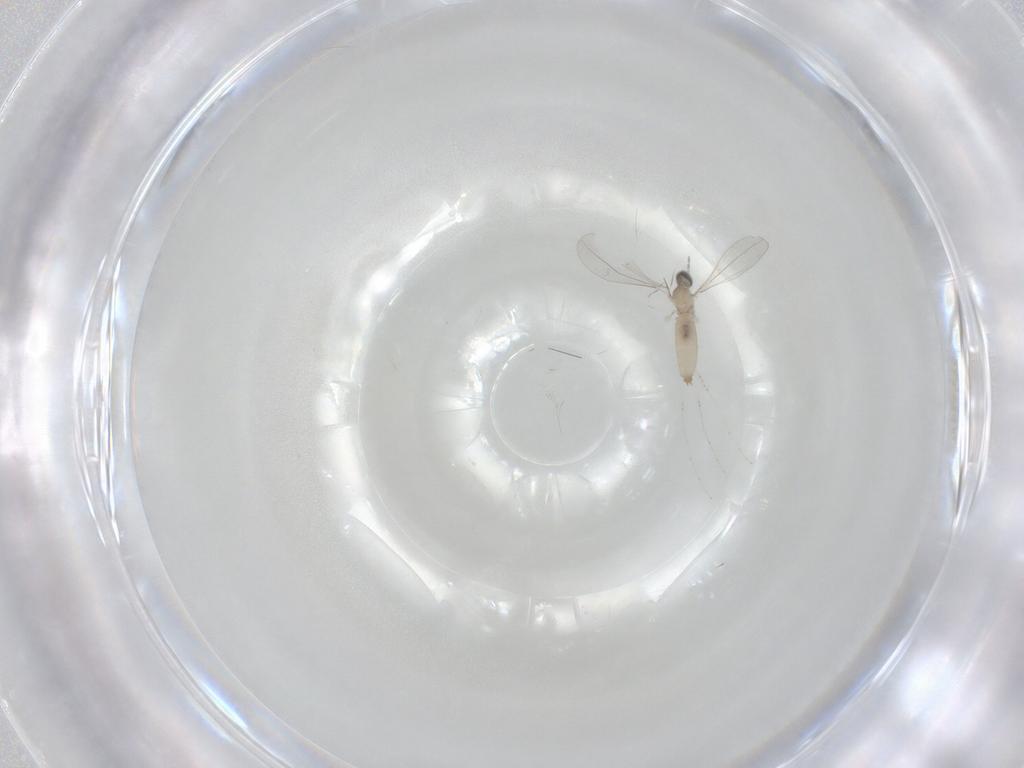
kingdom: Animalia
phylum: Arthropoda
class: Insecta
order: Diptera
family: Cecidomyiidae
